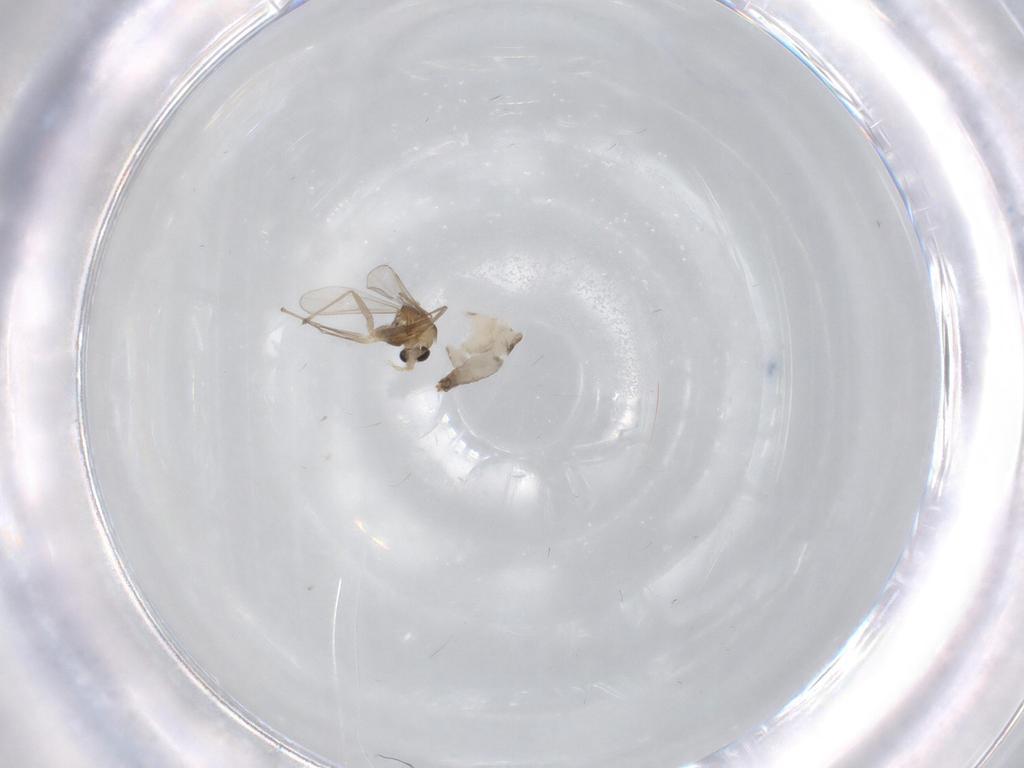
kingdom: Animalia
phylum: Arthropoda
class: Insecta
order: Diptera
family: Chironomidae
